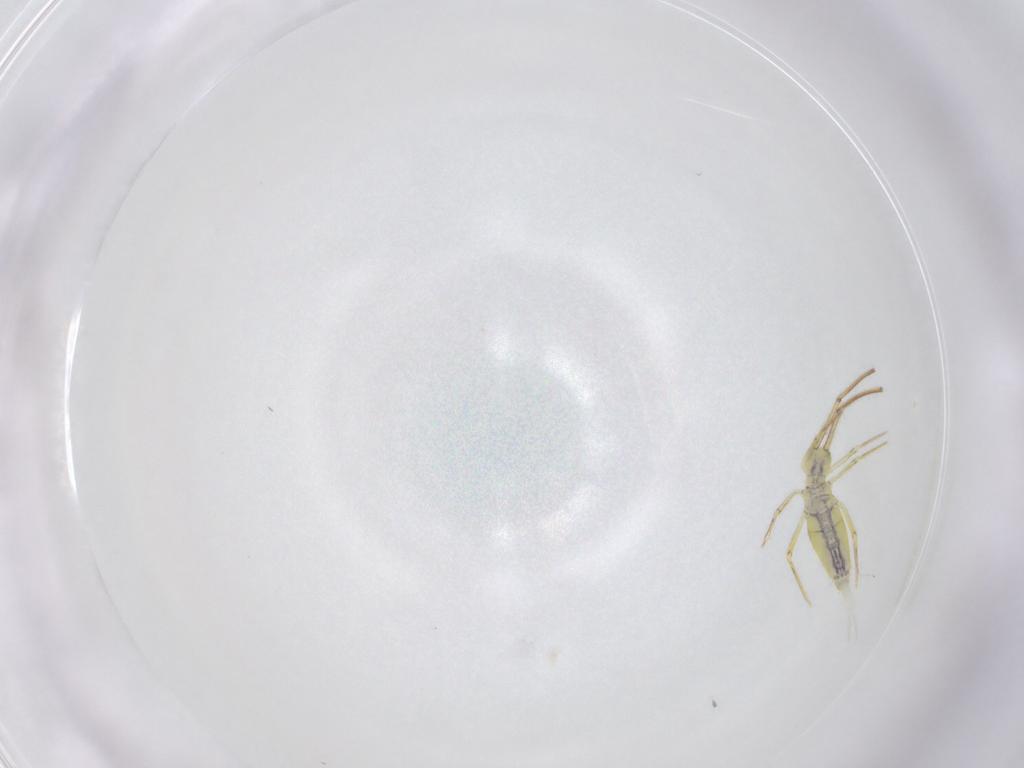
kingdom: Animalia
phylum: Arthropoda
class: Collembola
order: Entomobryomorpha
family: Entomobryidae
